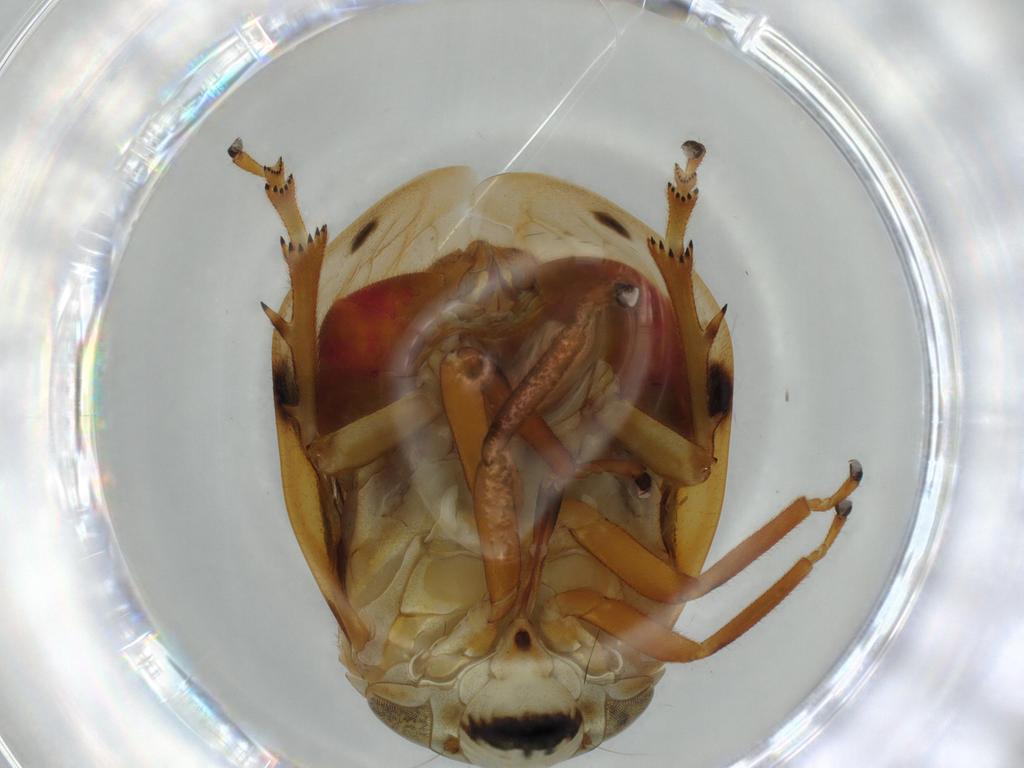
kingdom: Animalia
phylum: Arthropoda
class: Insecta
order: Hemiptera
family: Clastopteridae
